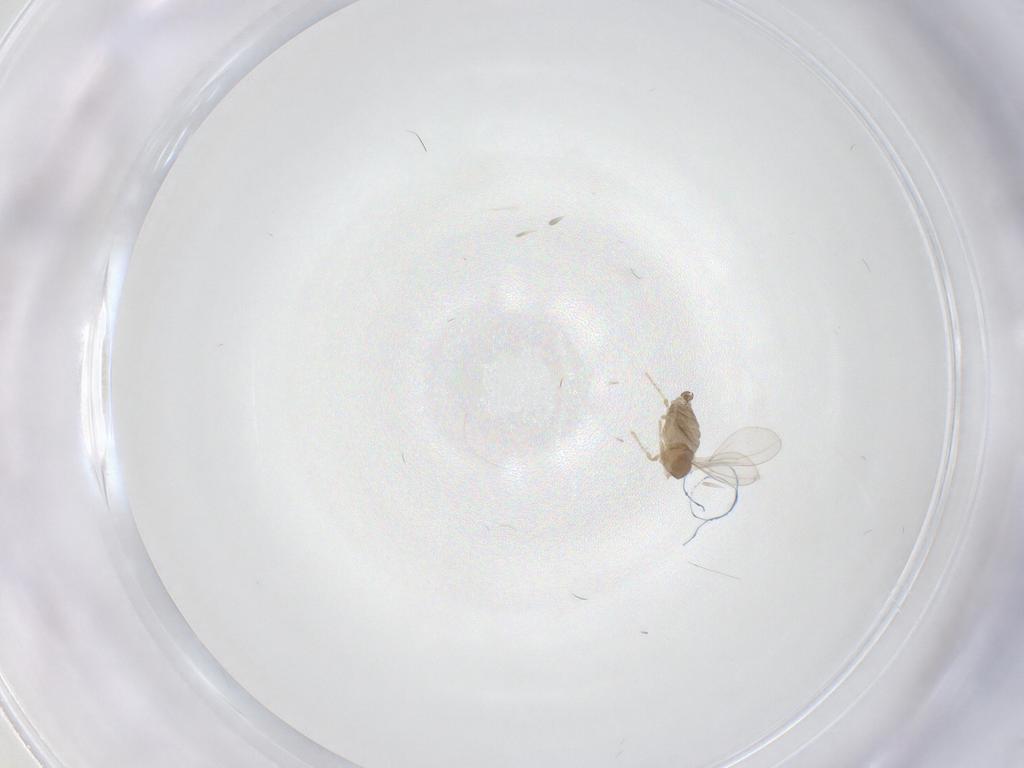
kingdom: Animalia
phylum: Arthropoda
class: Insecta
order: Diptera
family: Cecidomyiidae
